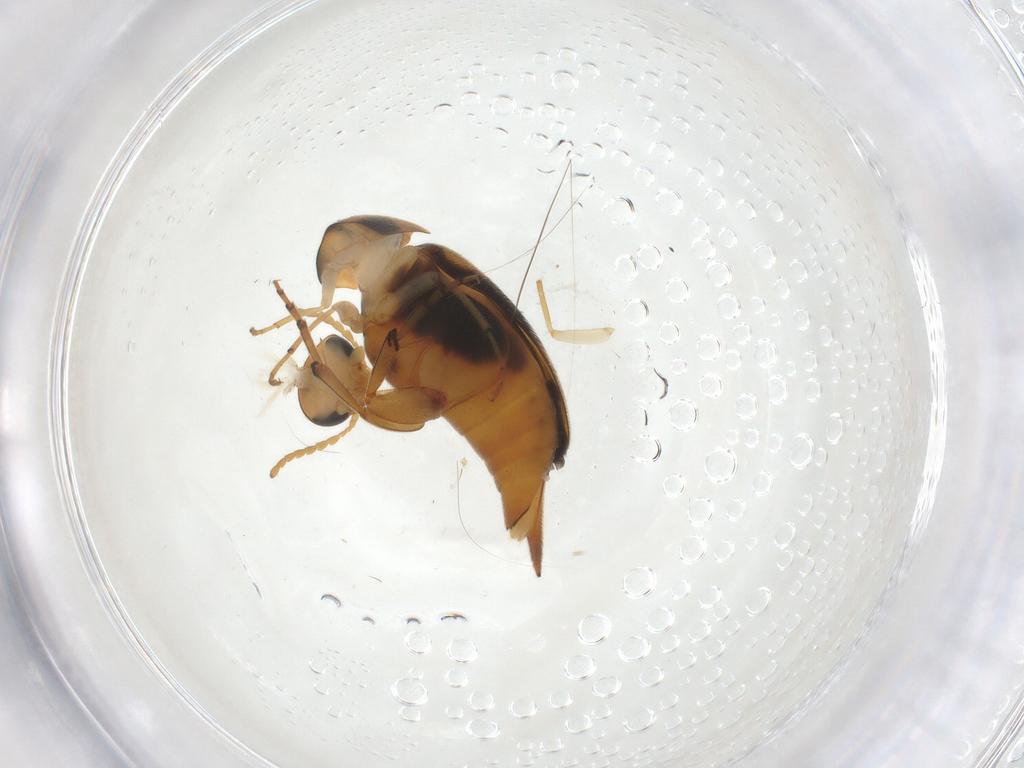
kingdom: Animalia
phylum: Arthropoda
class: Insecta
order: Coleoptera
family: Mordellidae
